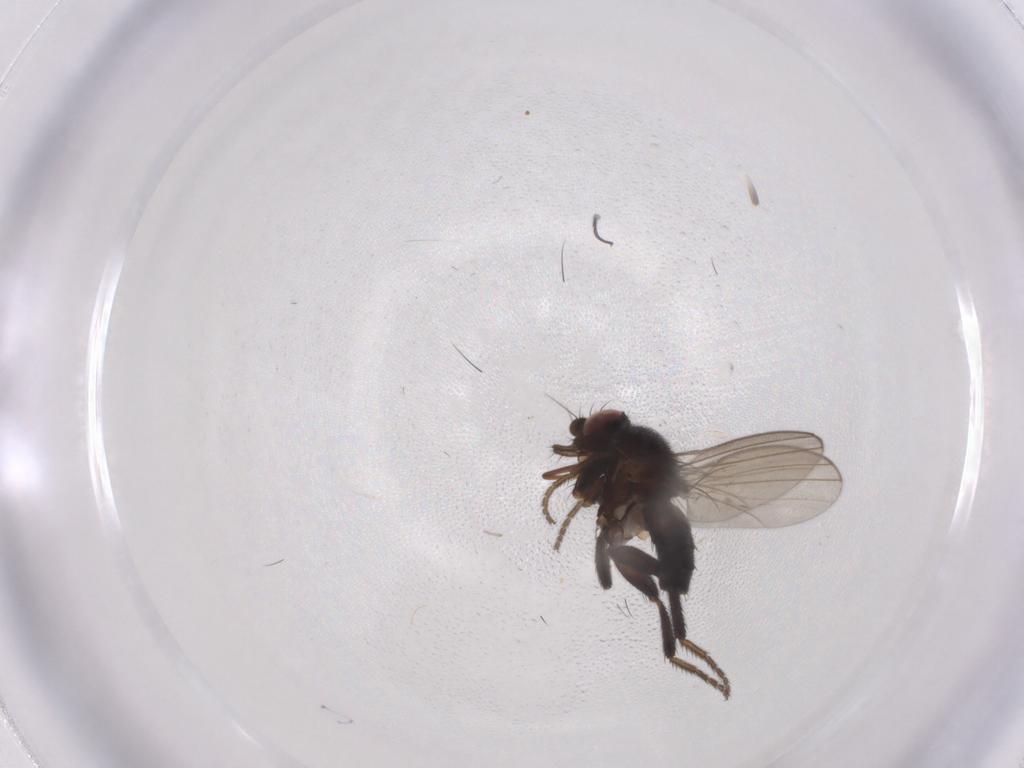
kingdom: Animalia
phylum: Arthropoda
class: Insecta
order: Diptera
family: Milichiidae
